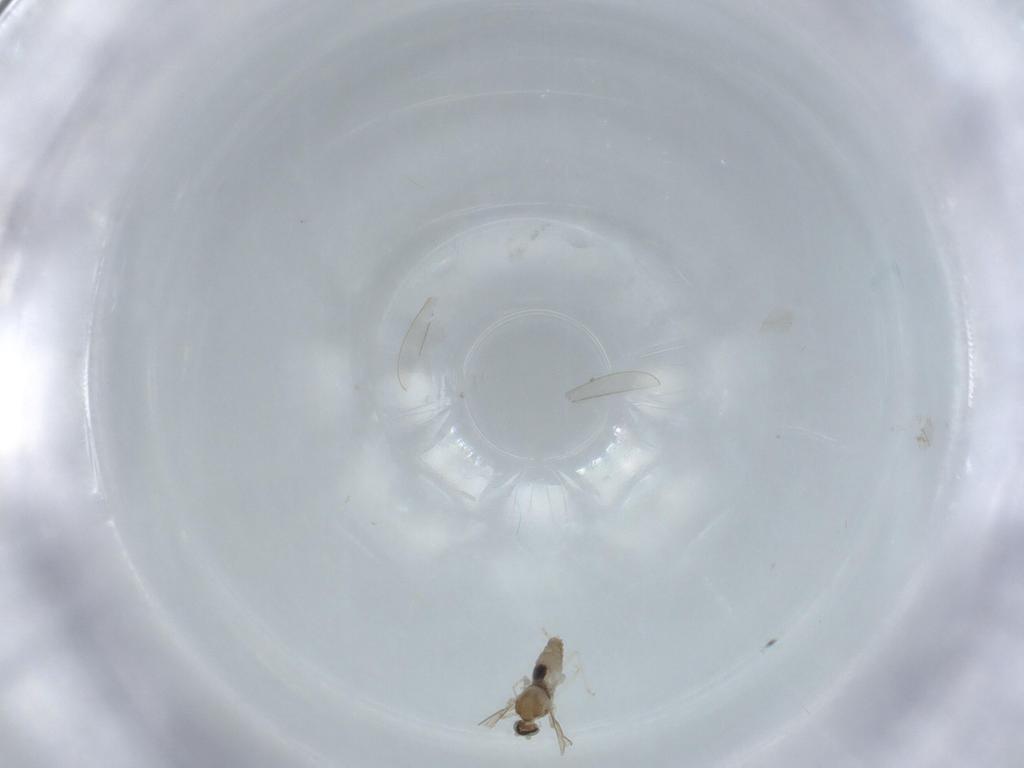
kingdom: Animalia
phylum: Arthropoda
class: Insecta
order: Diptera
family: Cecidomyiidae
